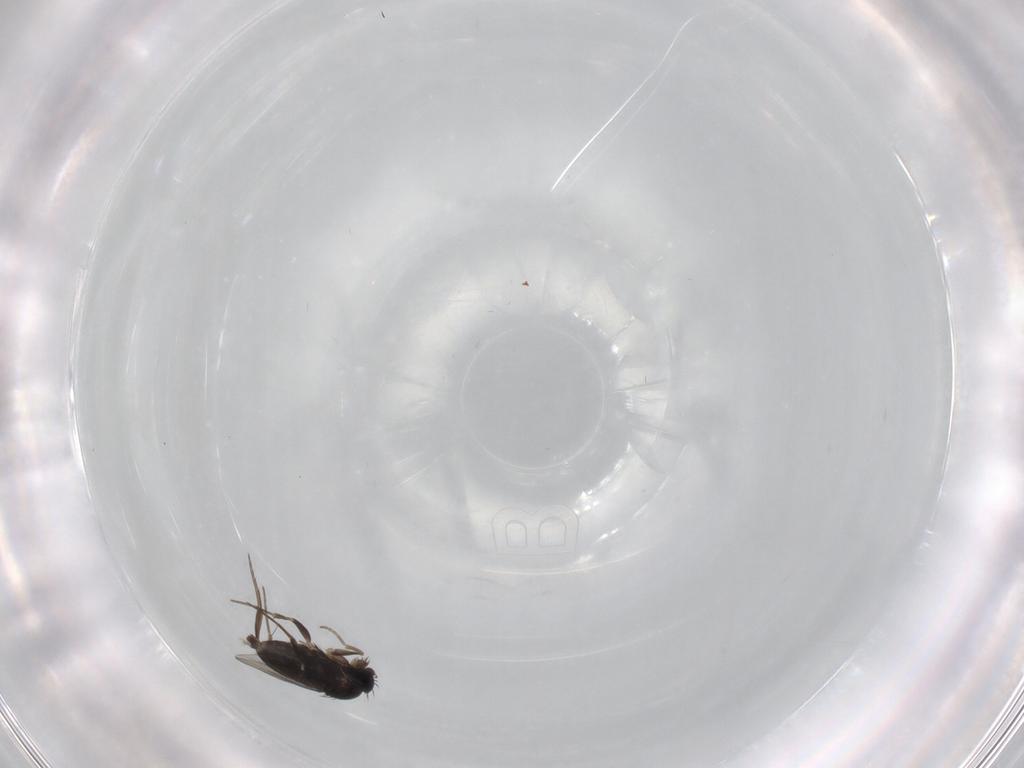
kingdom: Animalia
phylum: Arthropoda
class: Insecta
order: Diptera
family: Phoridae
